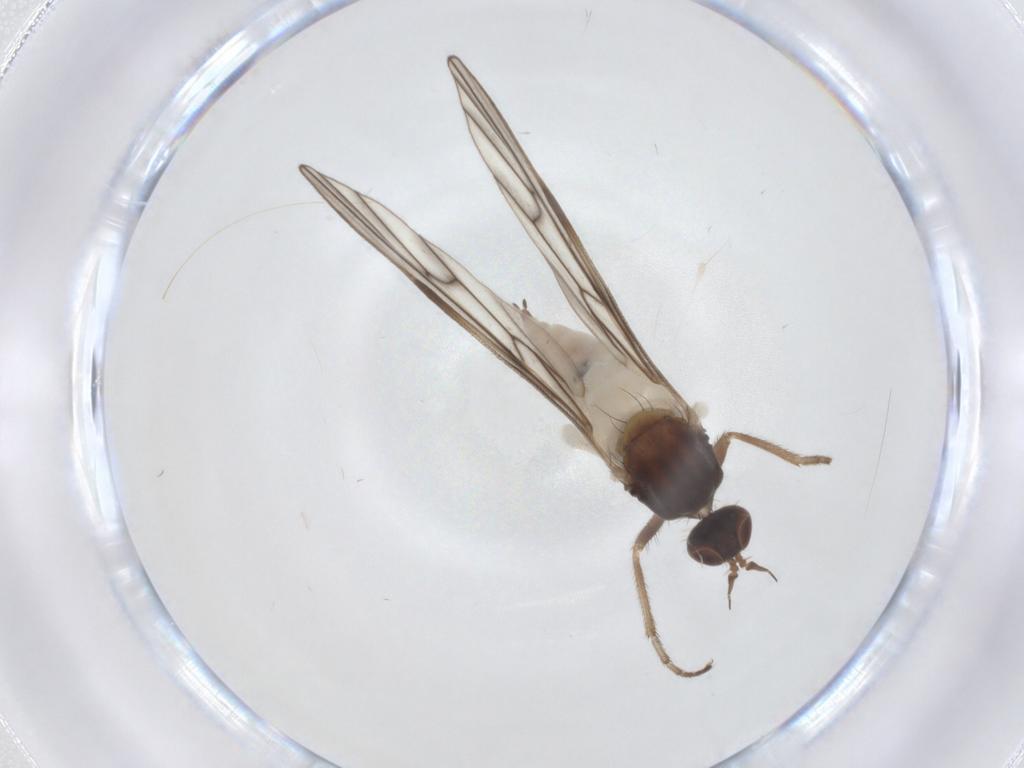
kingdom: Animalia
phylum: Arthropoda
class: Insecta
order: Diptera
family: Empididae
